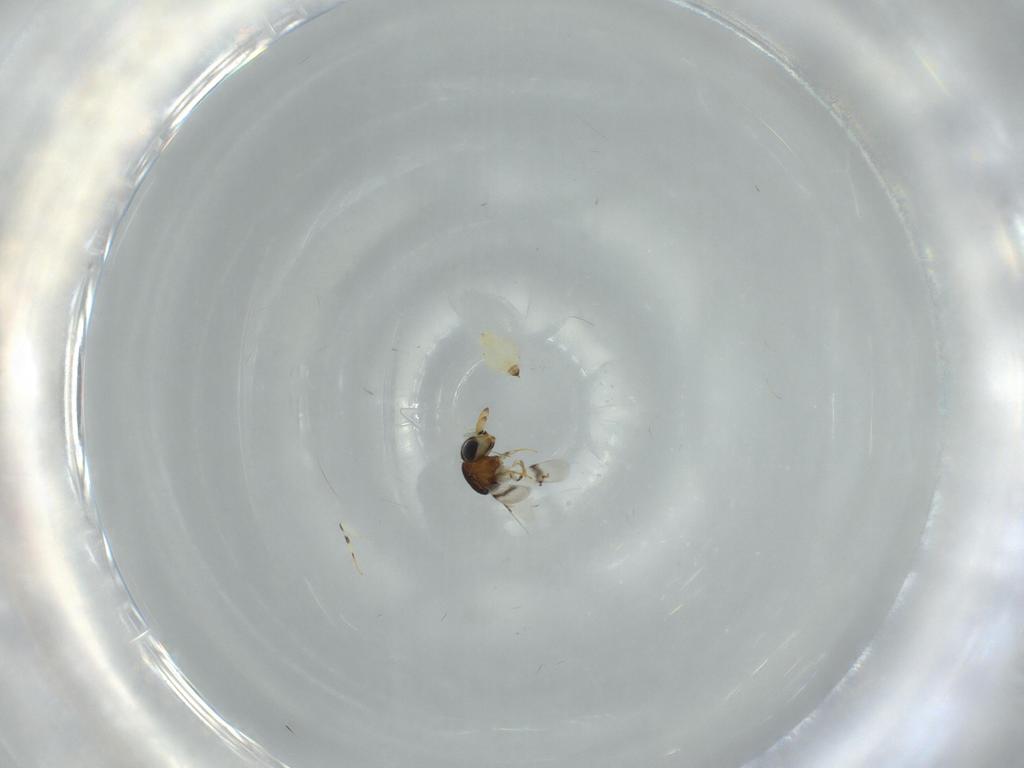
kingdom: Animalia
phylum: Arthropoda
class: Insecta
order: Hymenoptera
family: Scelionidae
